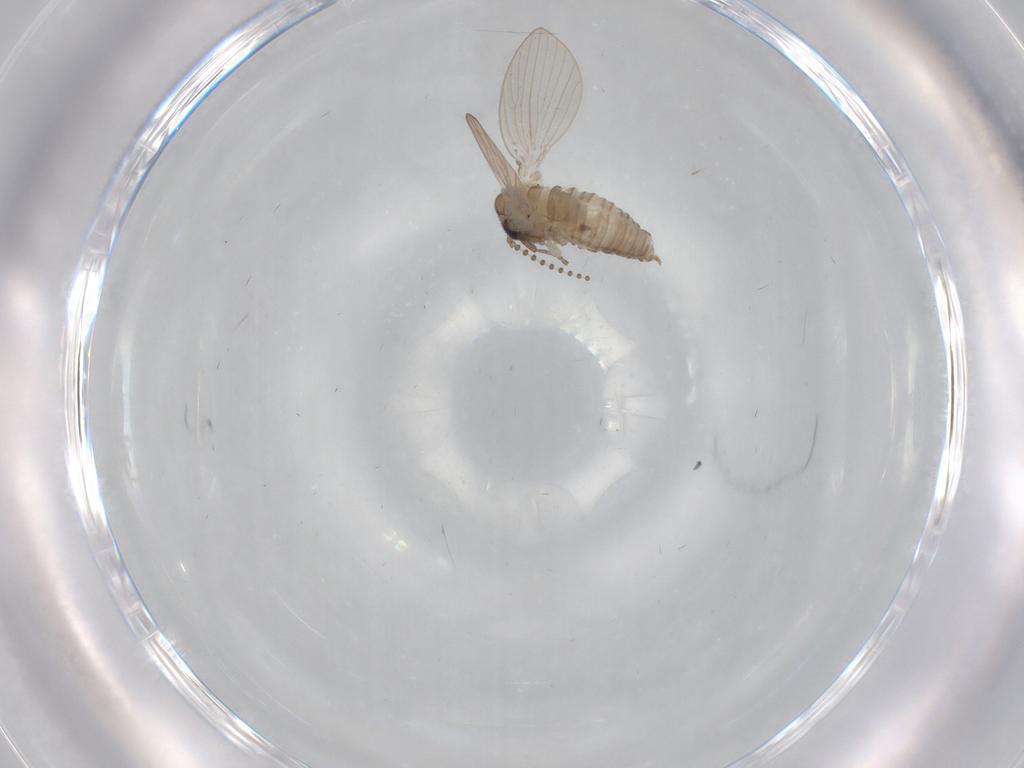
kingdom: Animalia
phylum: Arthropoda
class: Insecta
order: Diptera
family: Psychodidae
